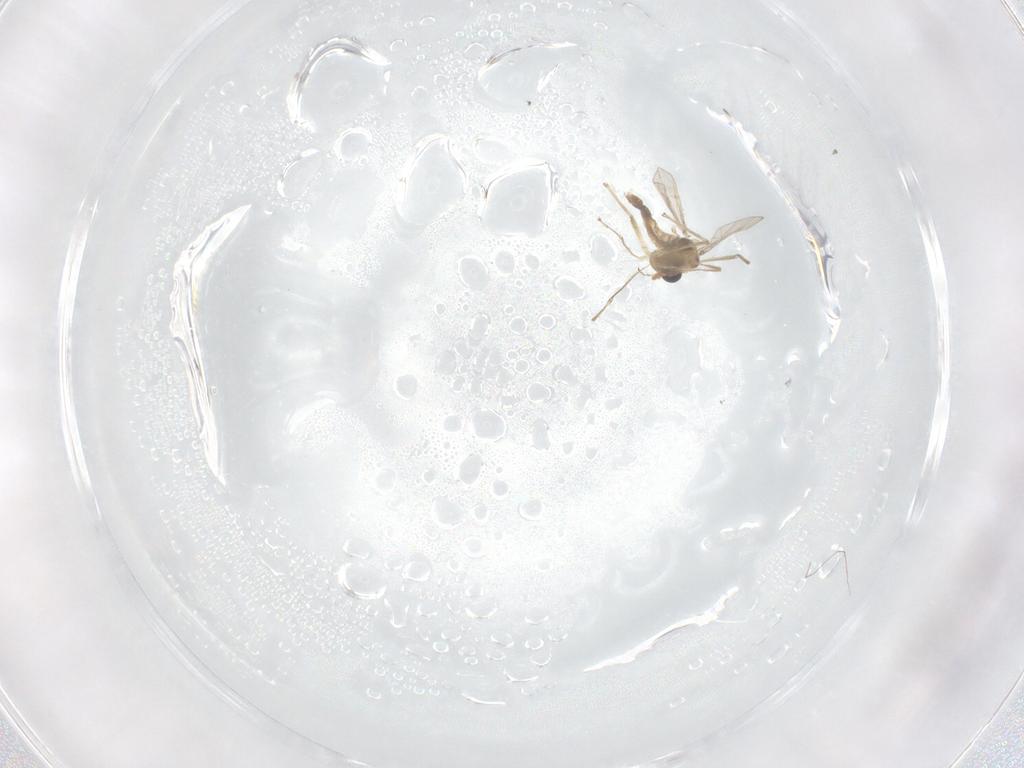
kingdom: Animalia
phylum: Arthropoda
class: Insecta
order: Diptera
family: Chironomidae
